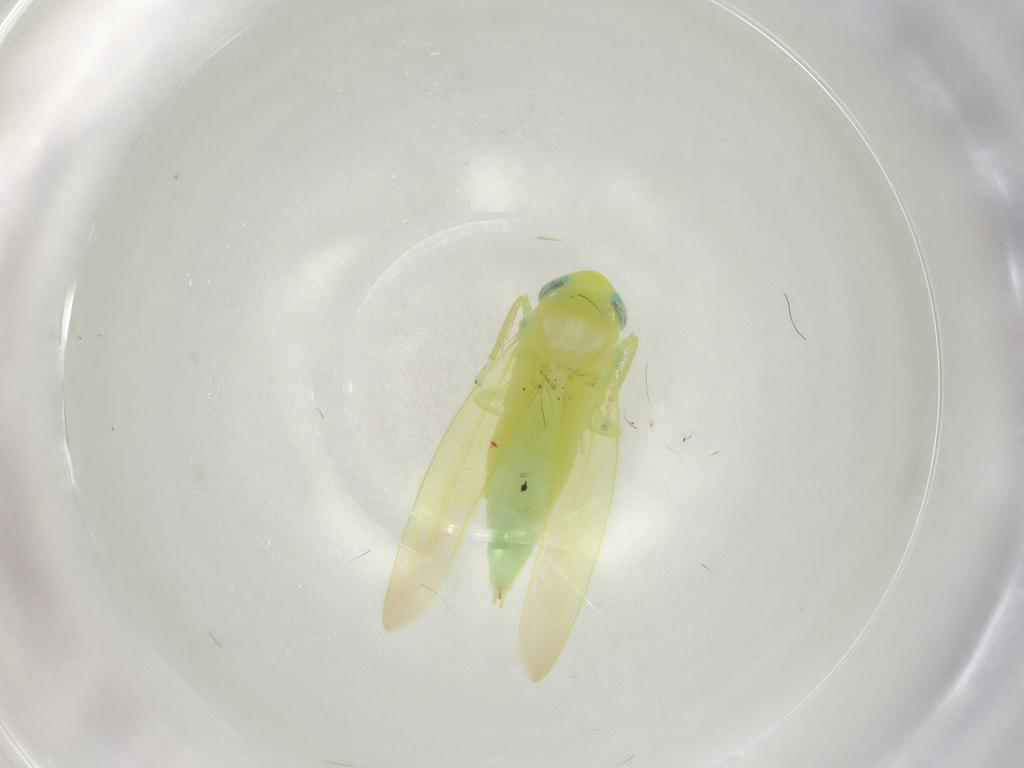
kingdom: Animalia
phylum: Arthropoda
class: Insecta
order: Hemiptera
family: Cicadellidae
